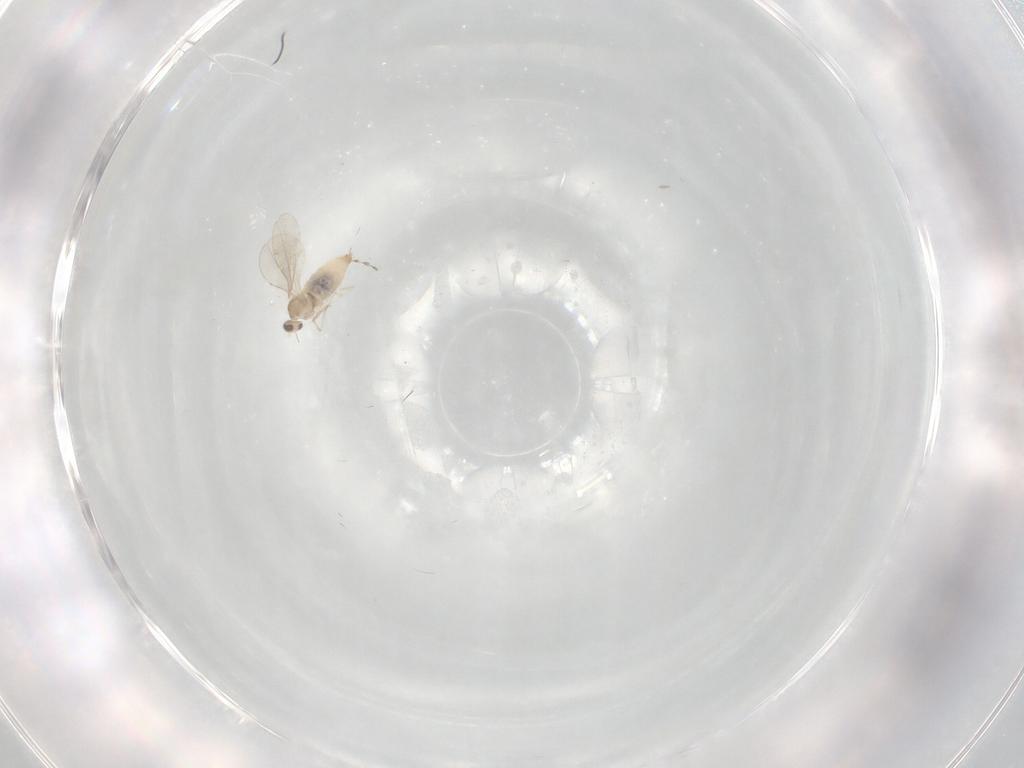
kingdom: Animalia
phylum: Arthropoda
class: Insecta
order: Diptera
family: Cecidomyiidae
